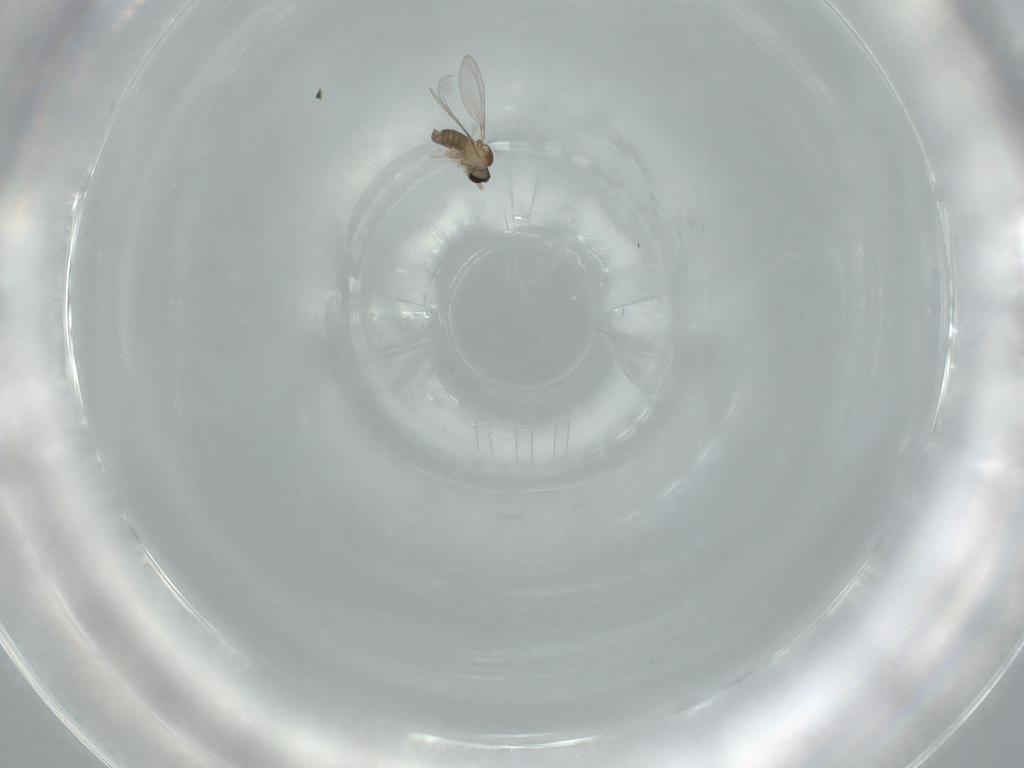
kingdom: Animalia
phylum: Arthropoda
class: Insecta
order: Diptera
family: Cecidomyiidae
